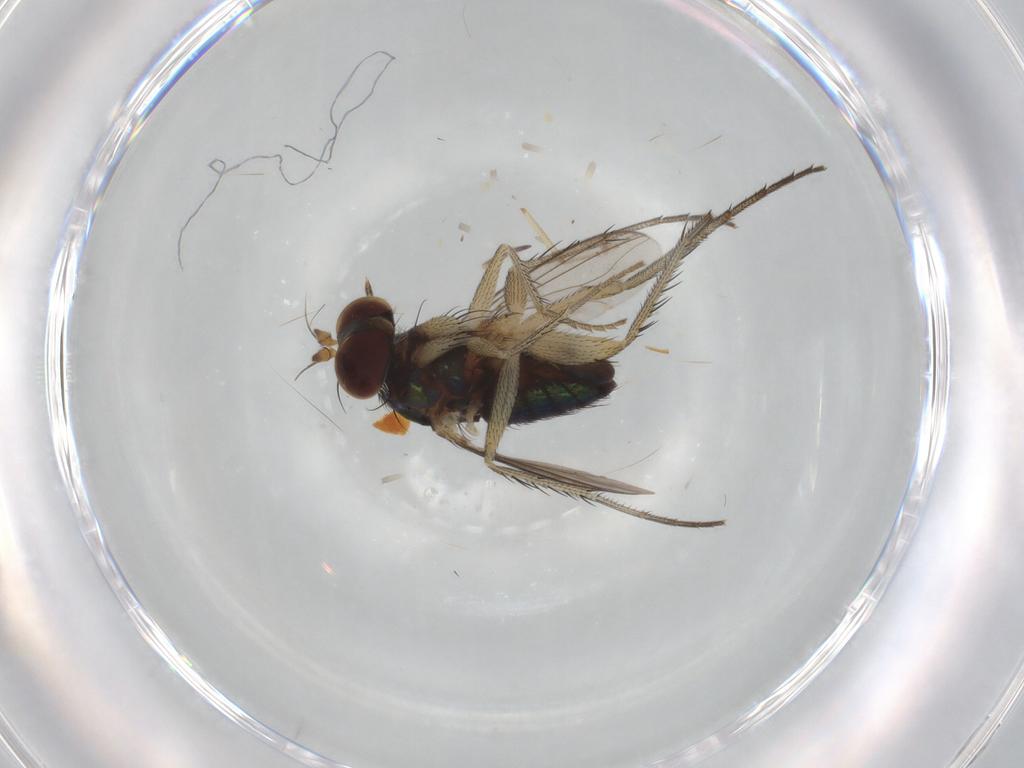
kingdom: Animalia
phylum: Arthropoda
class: Insecta
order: Diptera
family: Dolichopodidae
